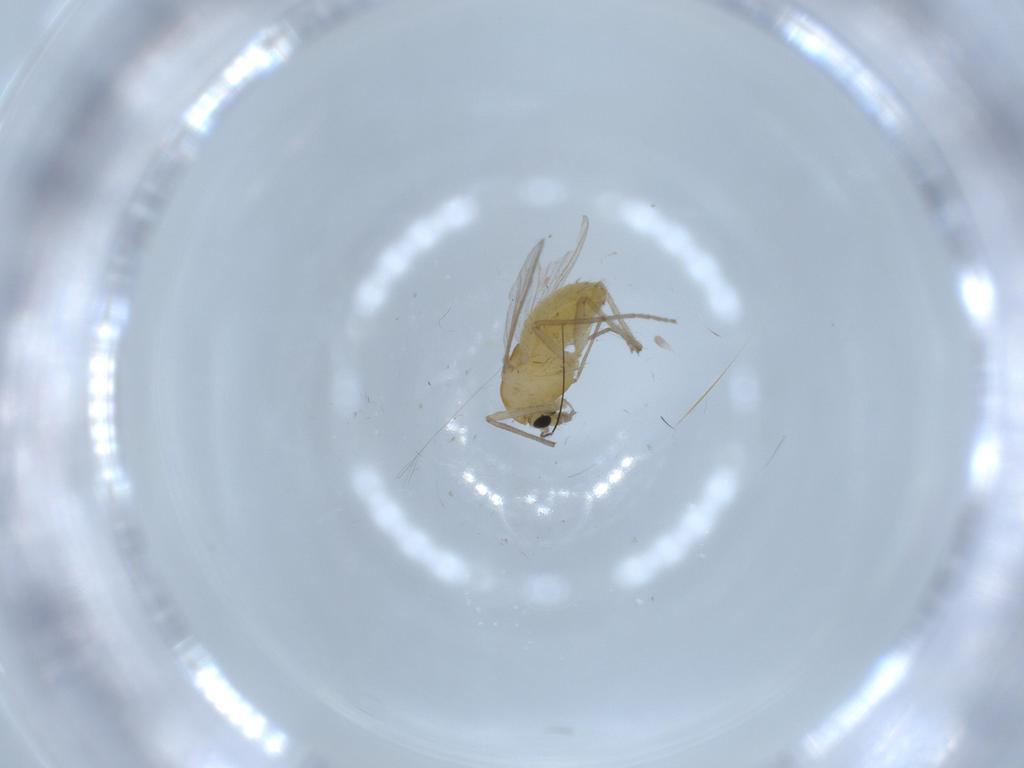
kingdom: Animalia
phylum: Arthropoda
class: Insecta
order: Diptera
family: Chironomidae
